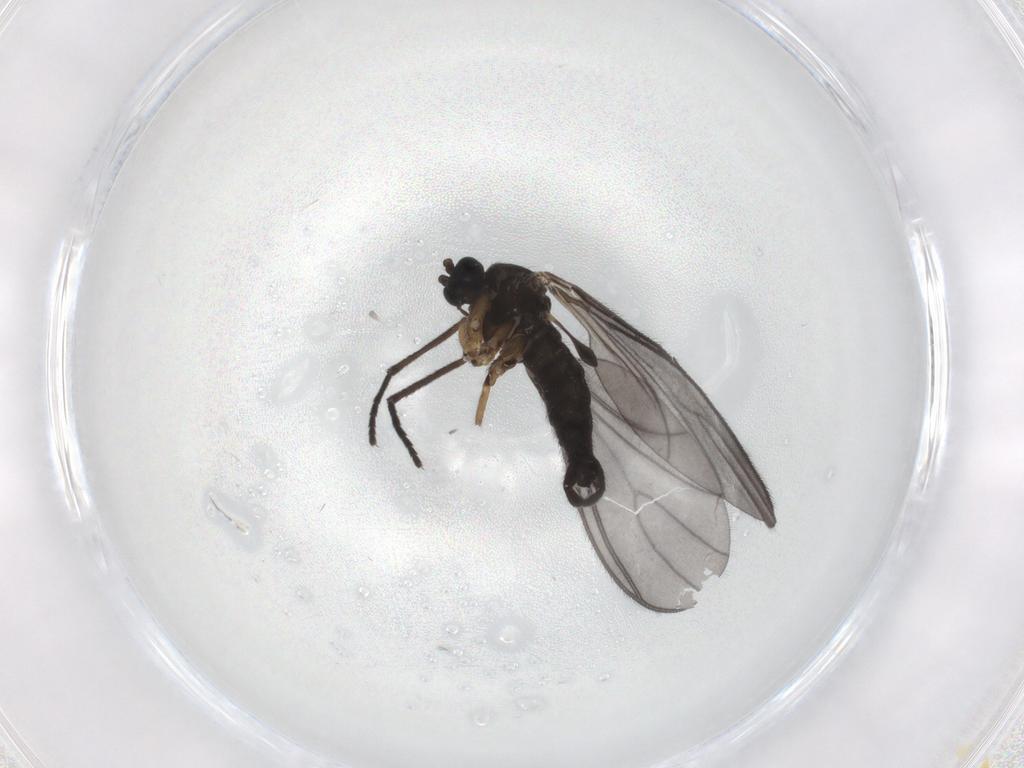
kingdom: Animalia
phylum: Arthropoda
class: Insecta
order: Diptera
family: Sciaridae
